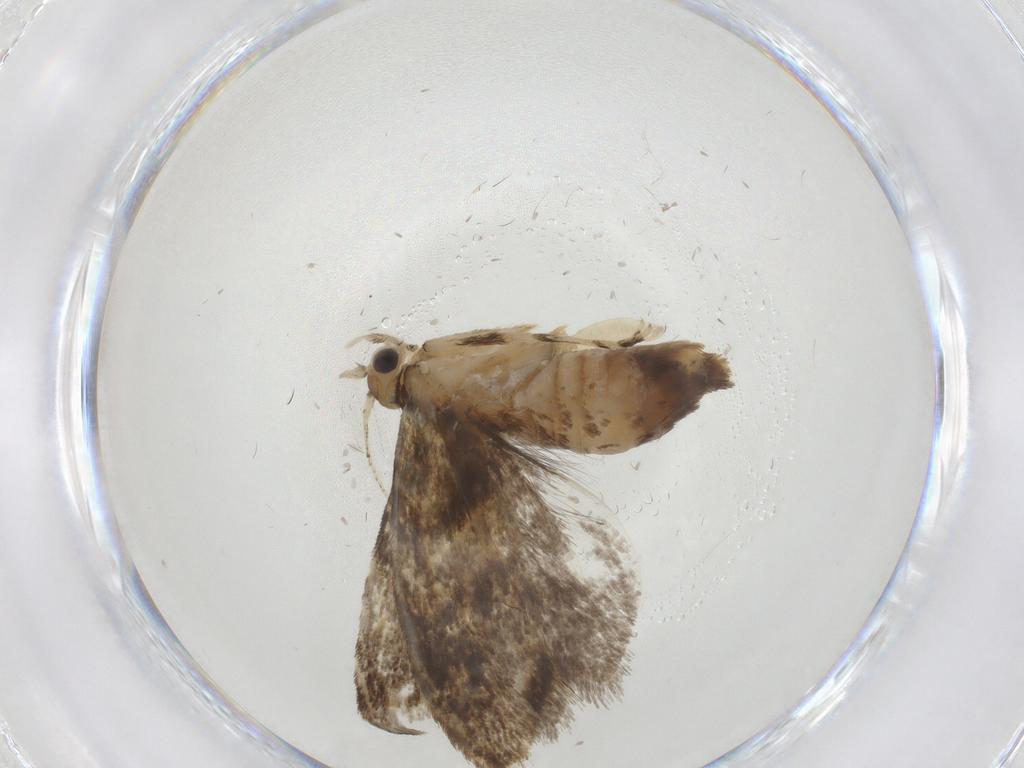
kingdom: Animalia
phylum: Arthropoda
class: Insecta
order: Lepidoptera
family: Tineidae
